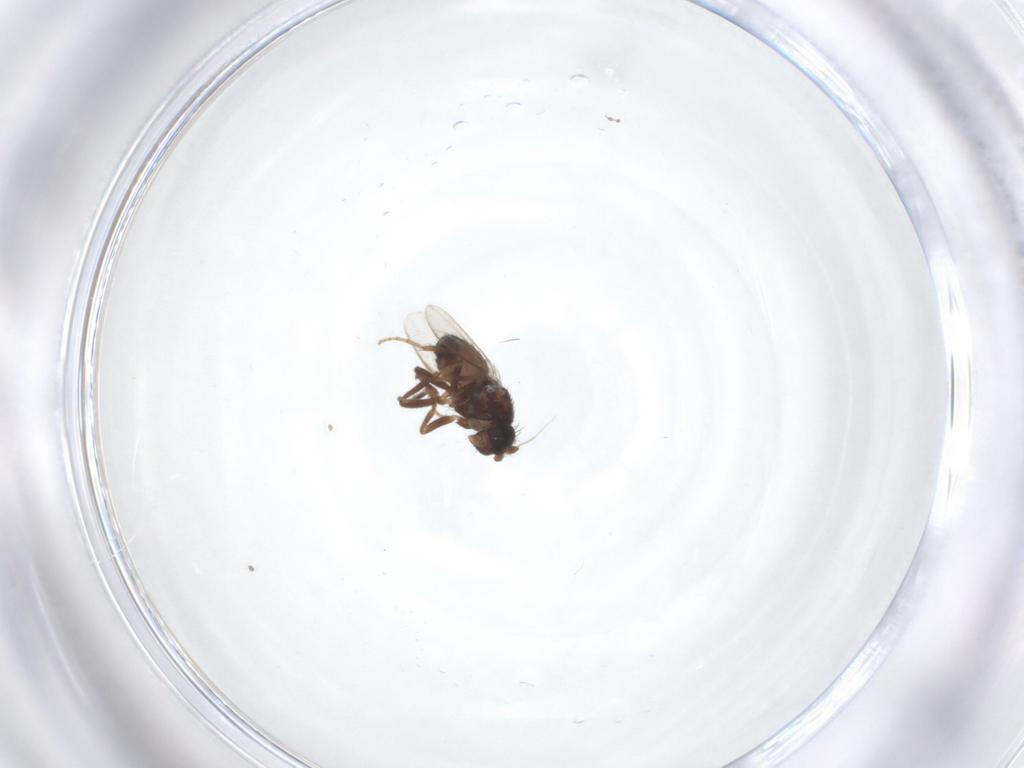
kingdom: Animalia
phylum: Arthropoda
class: Insecta
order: Diptera
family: Sphaeroceridae
